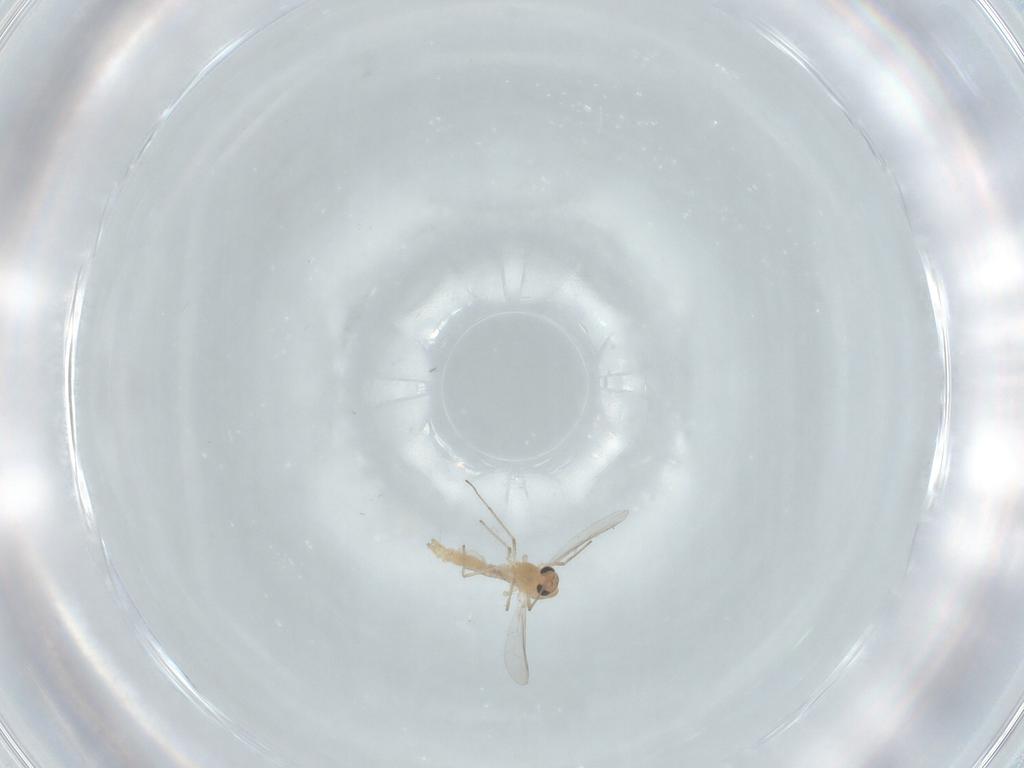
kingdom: Animalia
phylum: Arthropoda
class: Insecta
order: Diptera
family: Chironomidae
